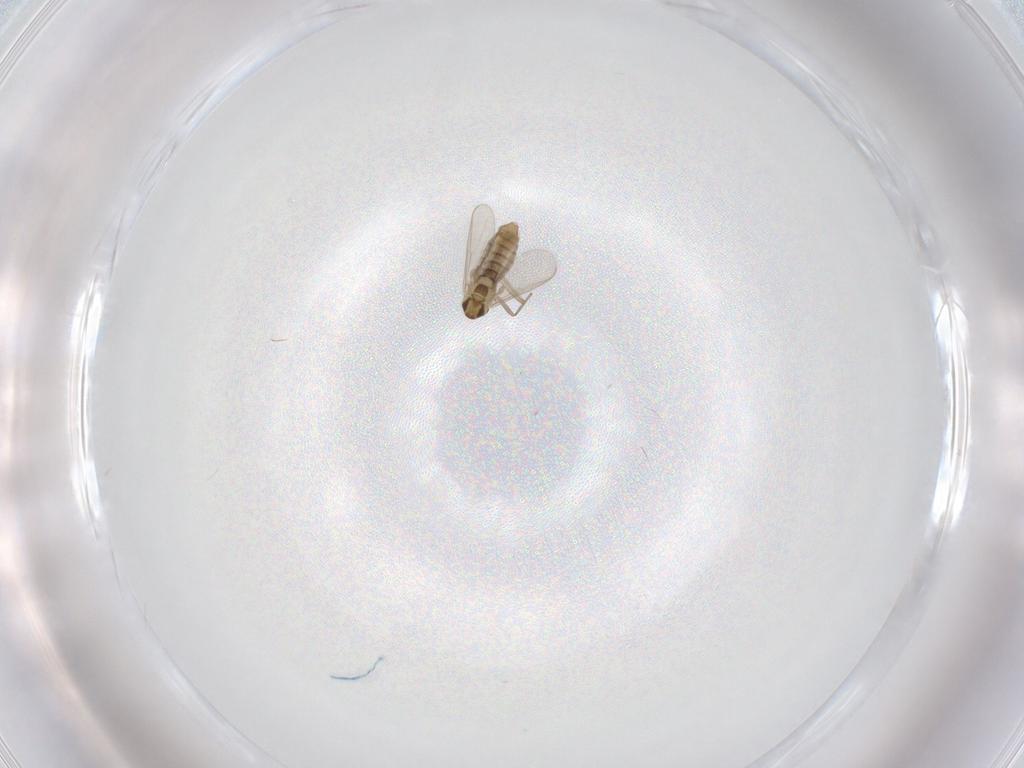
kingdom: Animalia
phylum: Arthropoda
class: Insecta
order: Diptera
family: Chironomidae
